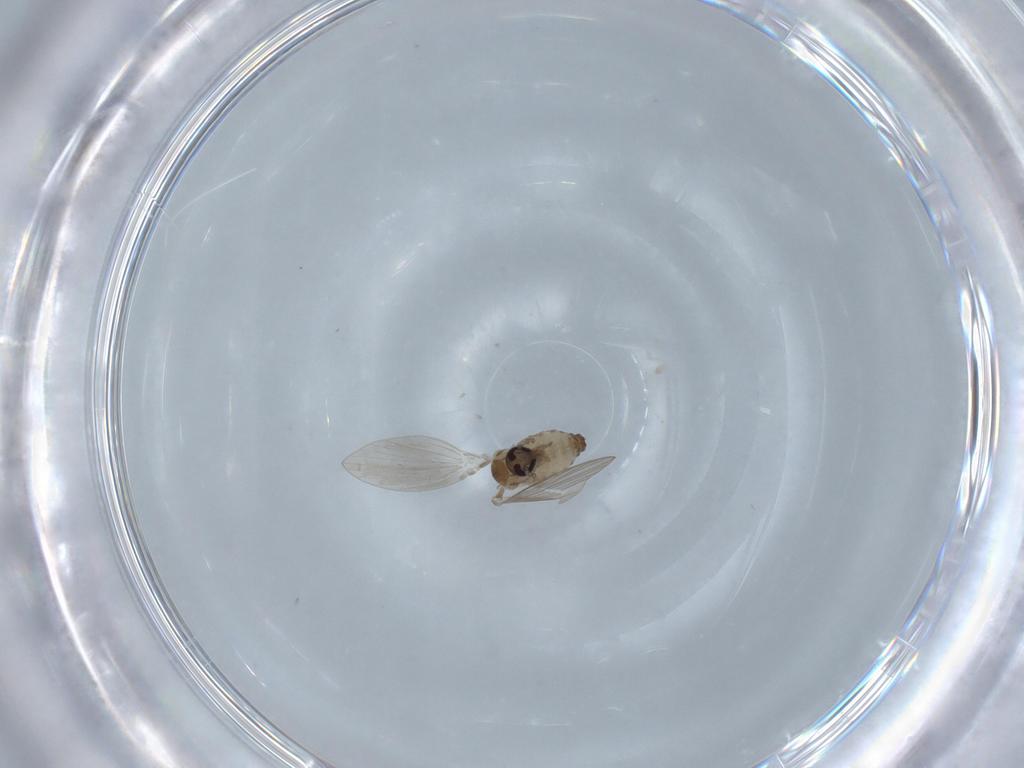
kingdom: Animalia
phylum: Arthropoda
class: Insecta
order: Diptera
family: Psychodidae
